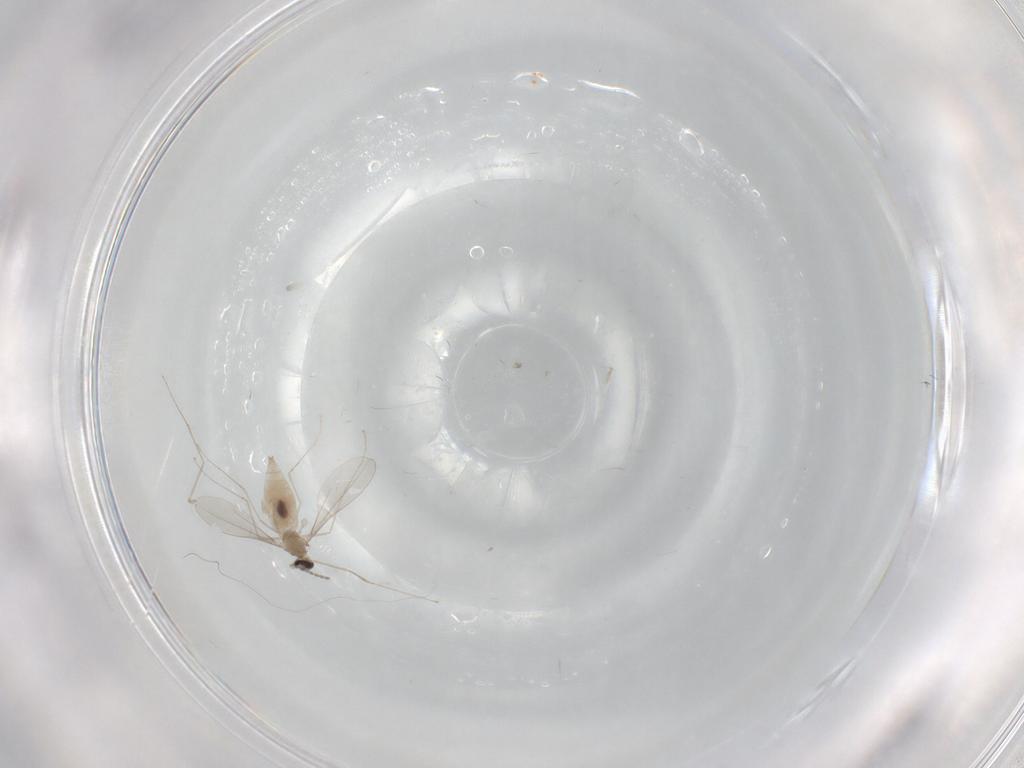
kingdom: Animalia
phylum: Arthropoda
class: Insecta
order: Diptera
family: Cecidomyiidae
